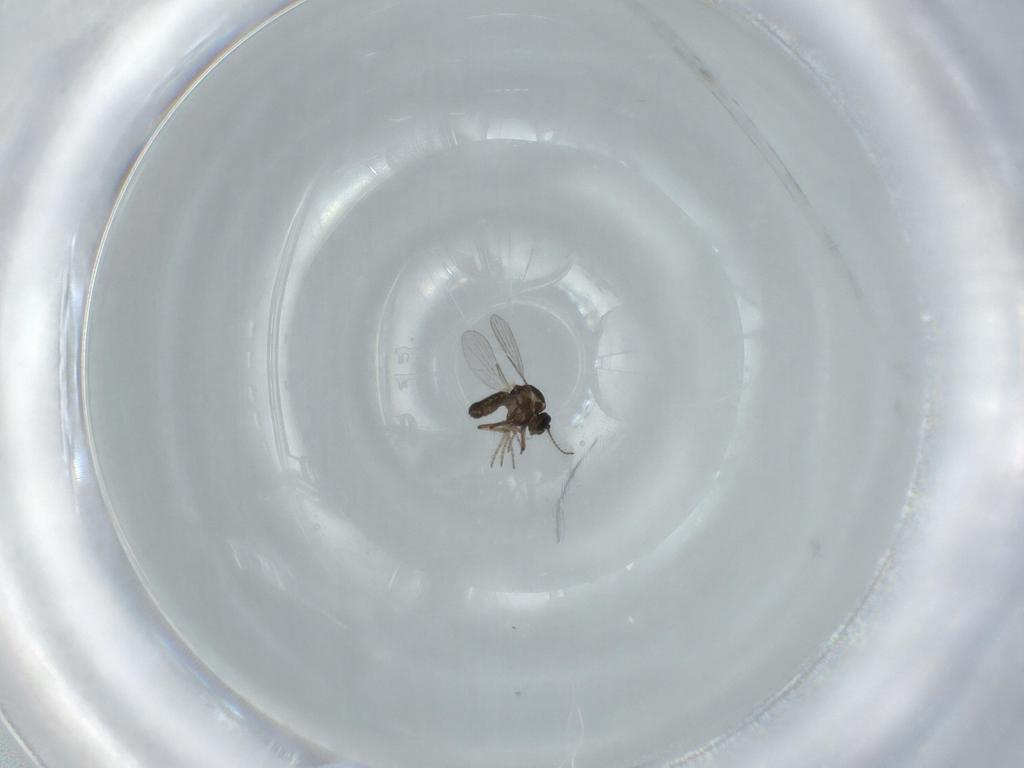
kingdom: Animalia
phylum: Arthropoda
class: Insecta
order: Diptera
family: Ceratopogonidae
